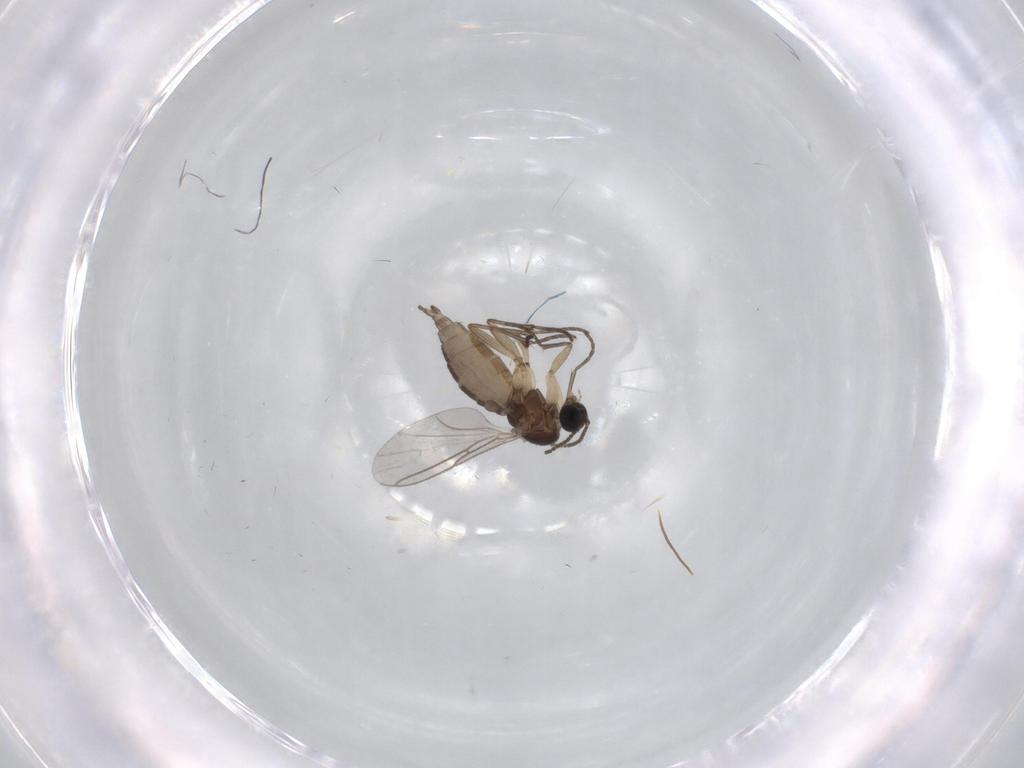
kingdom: Animalia
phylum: Arthropoda
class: Insecta
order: Diptera
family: Sciaridae
